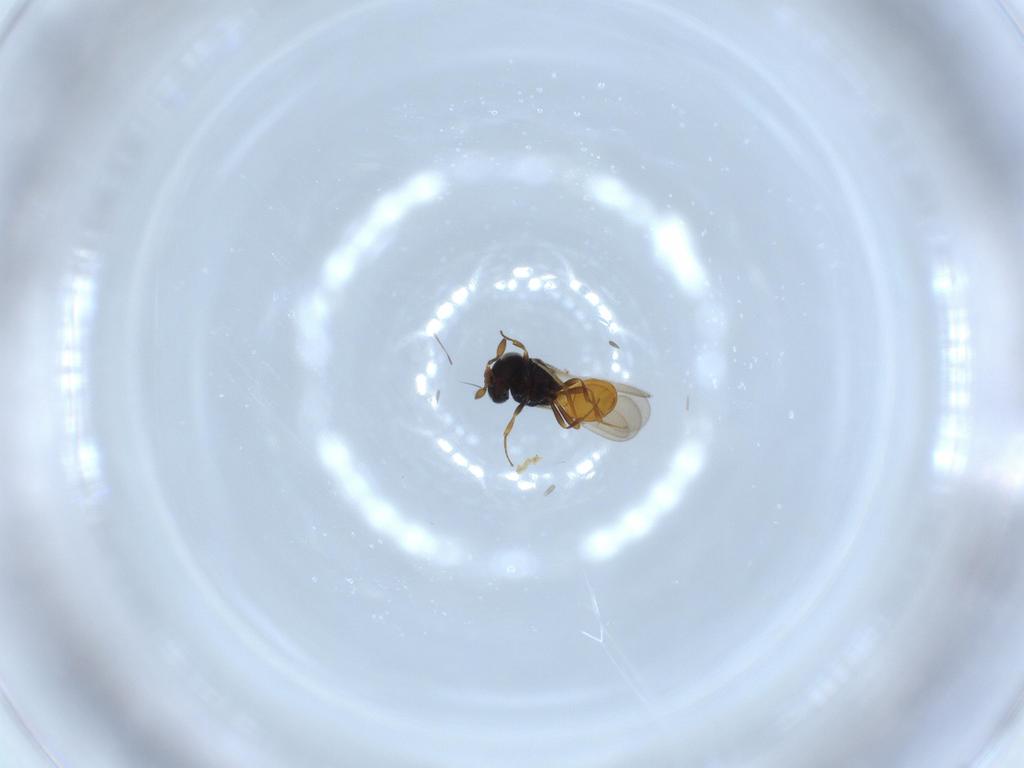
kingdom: Animalia
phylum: Arthropoda
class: Insecta
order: Hymenoptera
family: Scelionidae
